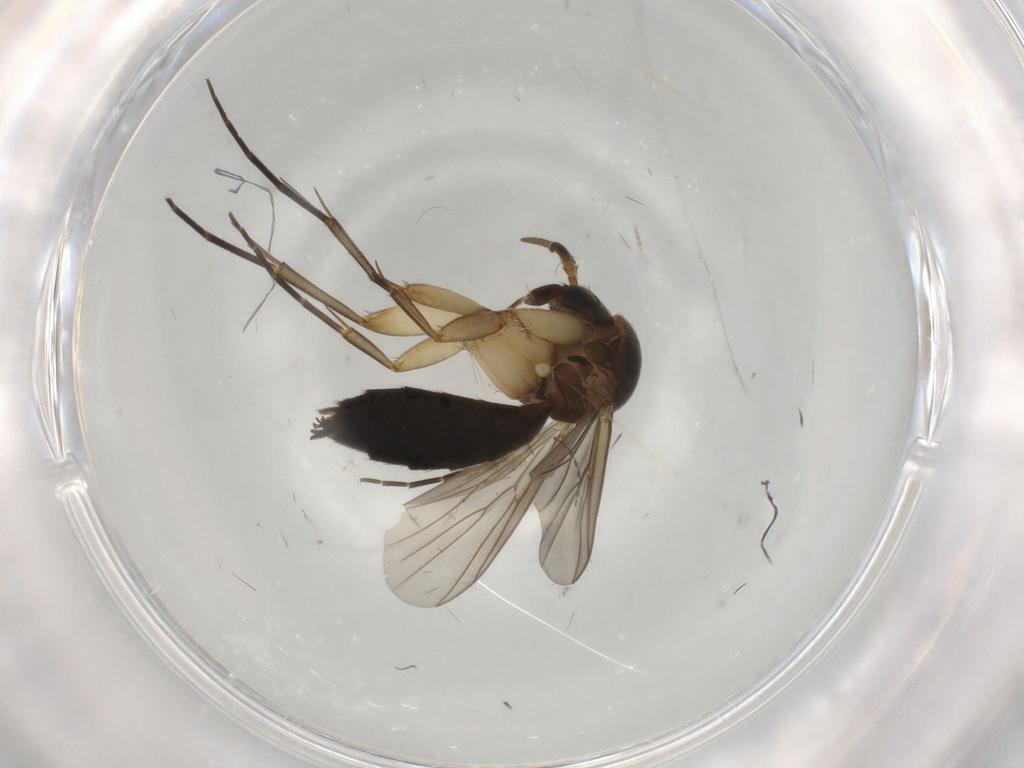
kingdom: Animalia
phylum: Arthropoda
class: Insecta
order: Diptera
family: Mycetophilidae
